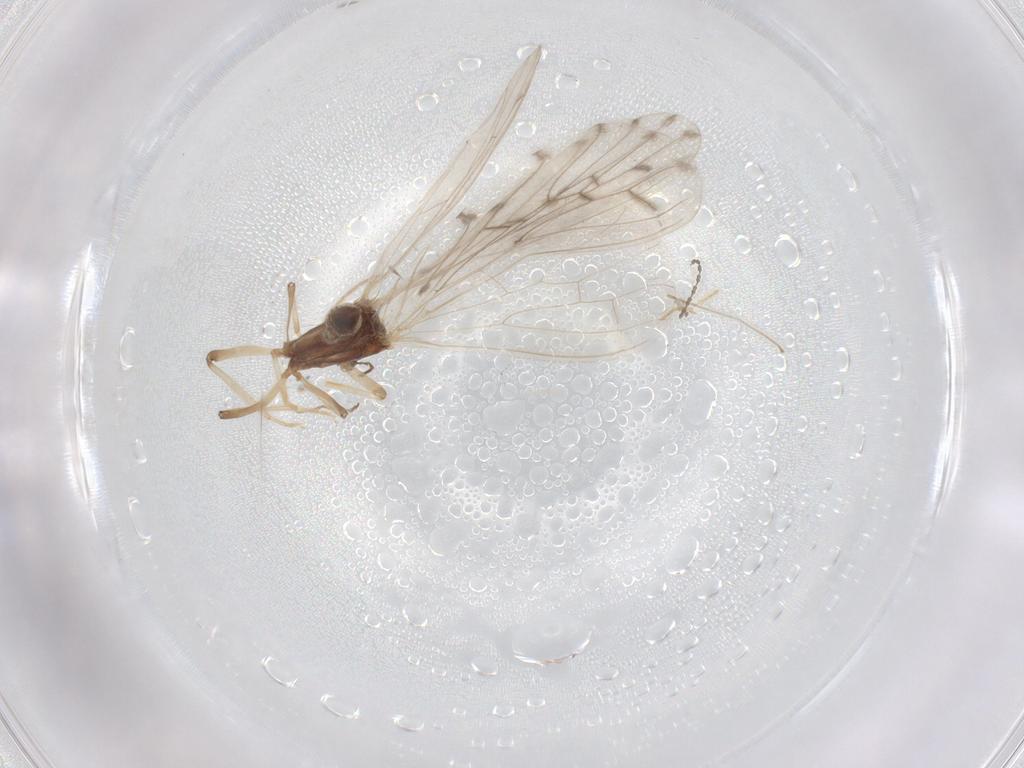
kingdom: Animalia
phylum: Arthropoda
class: Insecta
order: Neuroptera
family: Coniopterygidae
